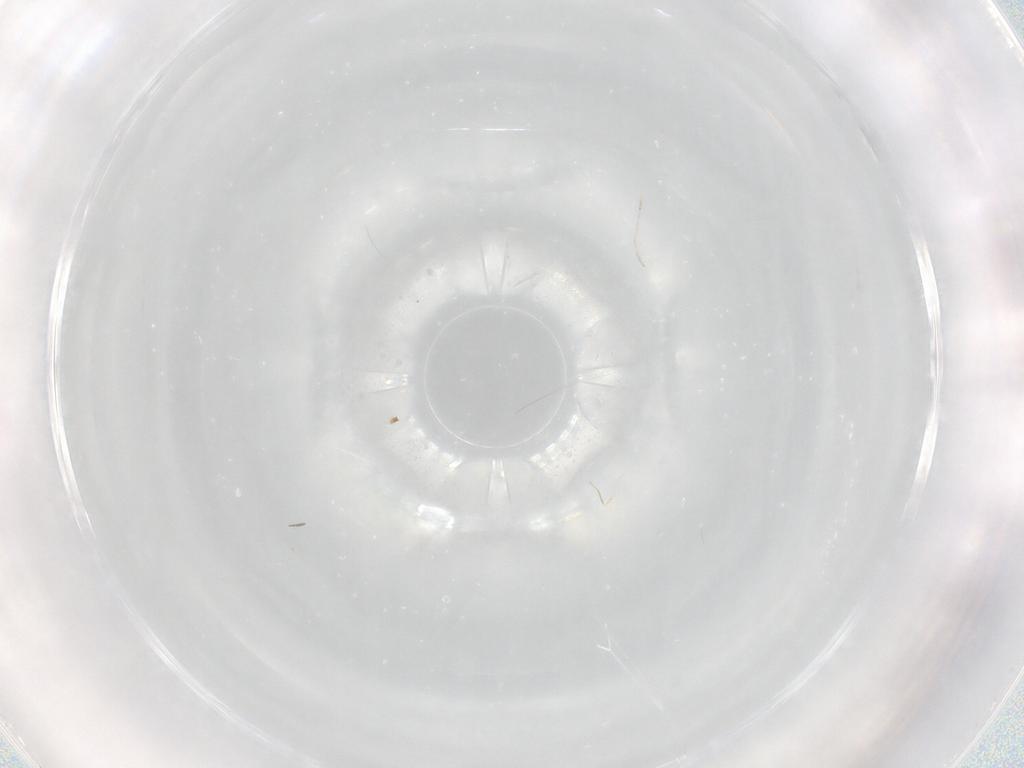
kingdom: Animalia
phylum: Arthropoda
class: Insecta
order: Diptera
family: Cecidomyiidae
